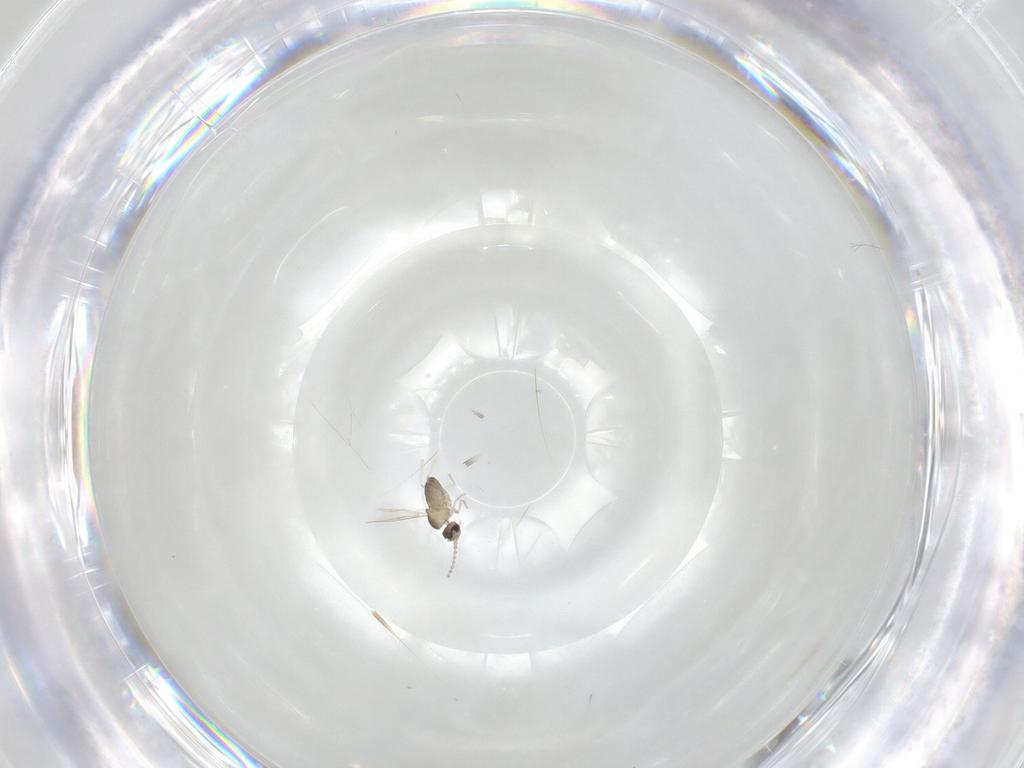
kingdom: Animalia
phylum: Arthropoda
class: Insecta
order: Diptera
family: Cecidomyiidae
